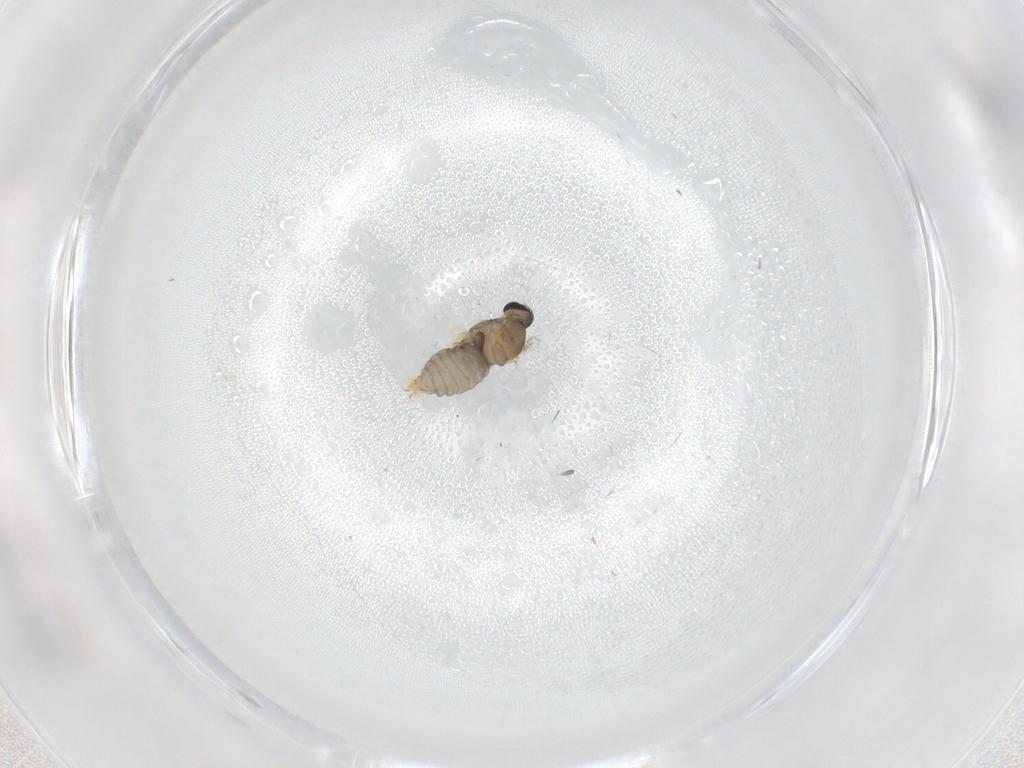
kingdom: Animalia
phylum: Arthropoda
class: Insecta
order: Diptera
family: Cecidomyiidae
